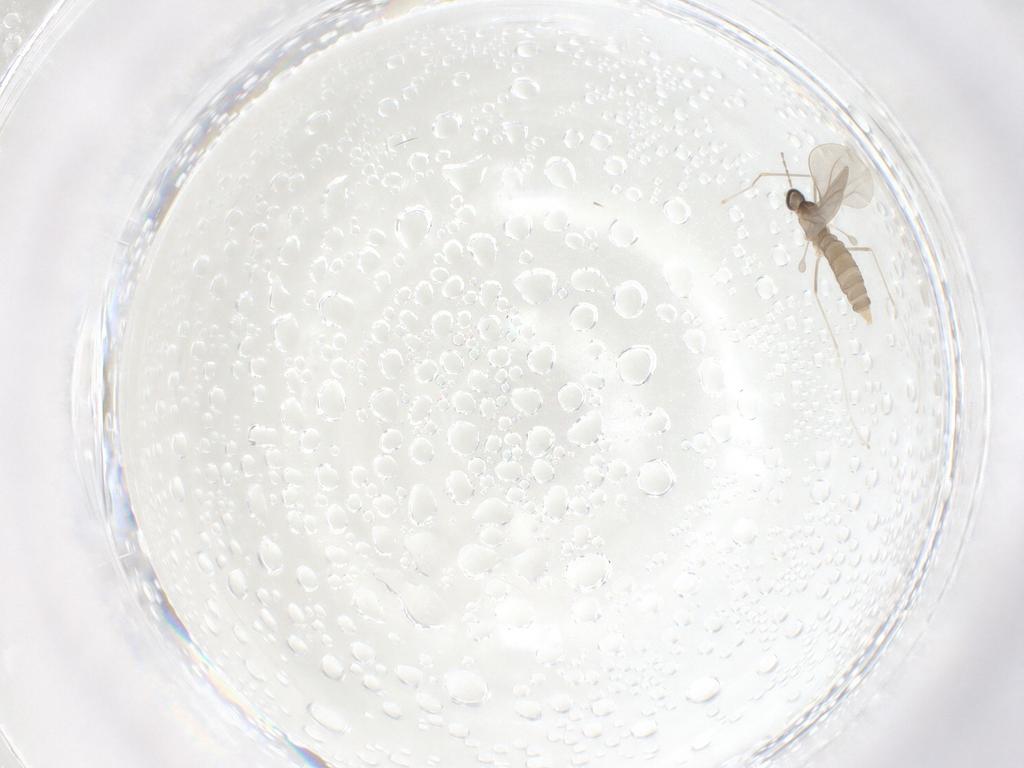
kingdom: Animalia
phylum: Arthropoda
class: Insecta
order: Diptera
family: Cecidomyiidae
